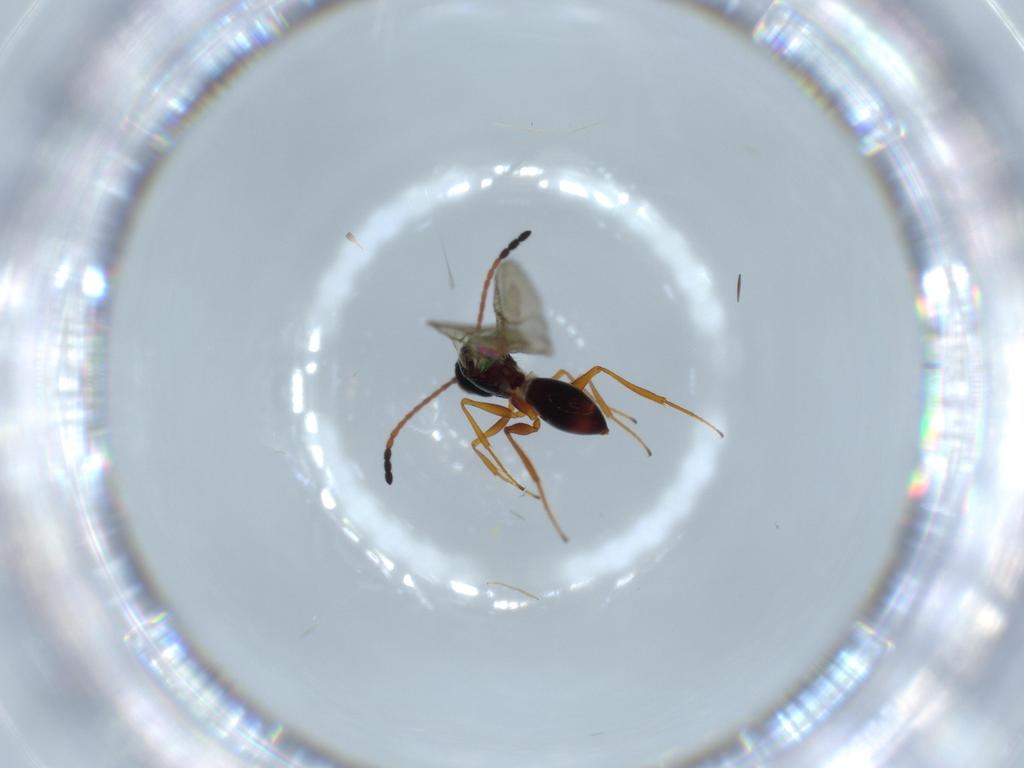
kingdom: Animalia
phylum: Arthropoda
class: Insecta
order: Hymenoptera
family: Figitidae
